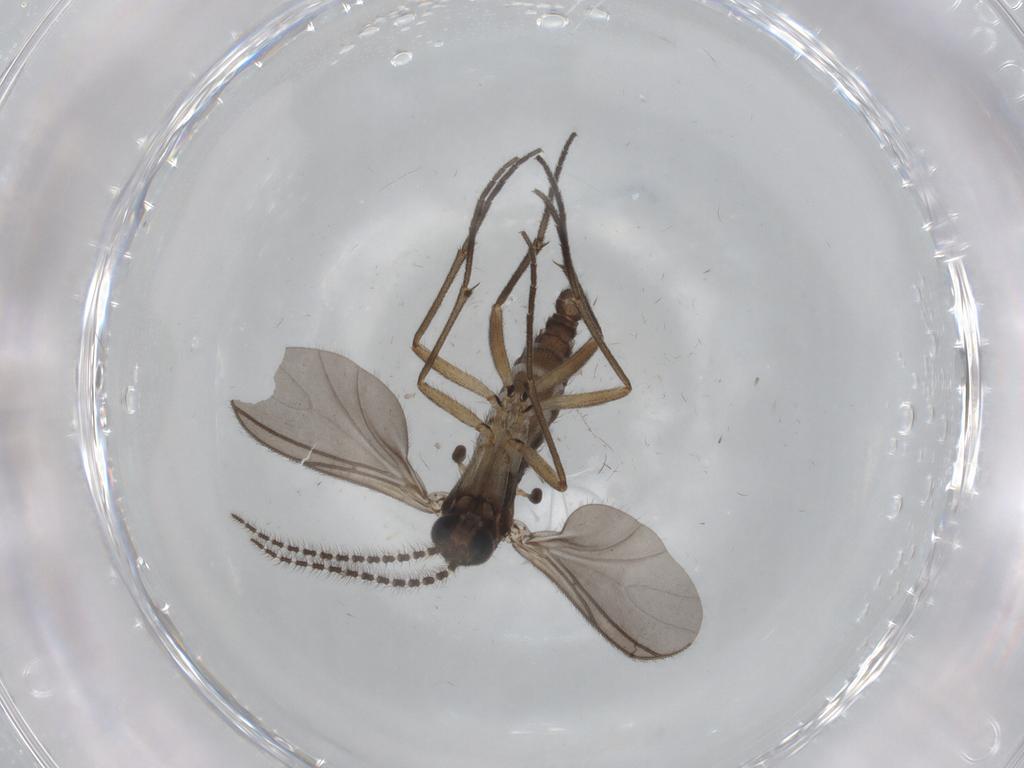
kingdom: Animalia
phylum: Arthropoda
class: Insecta
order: Diptera
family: Sciaridae
